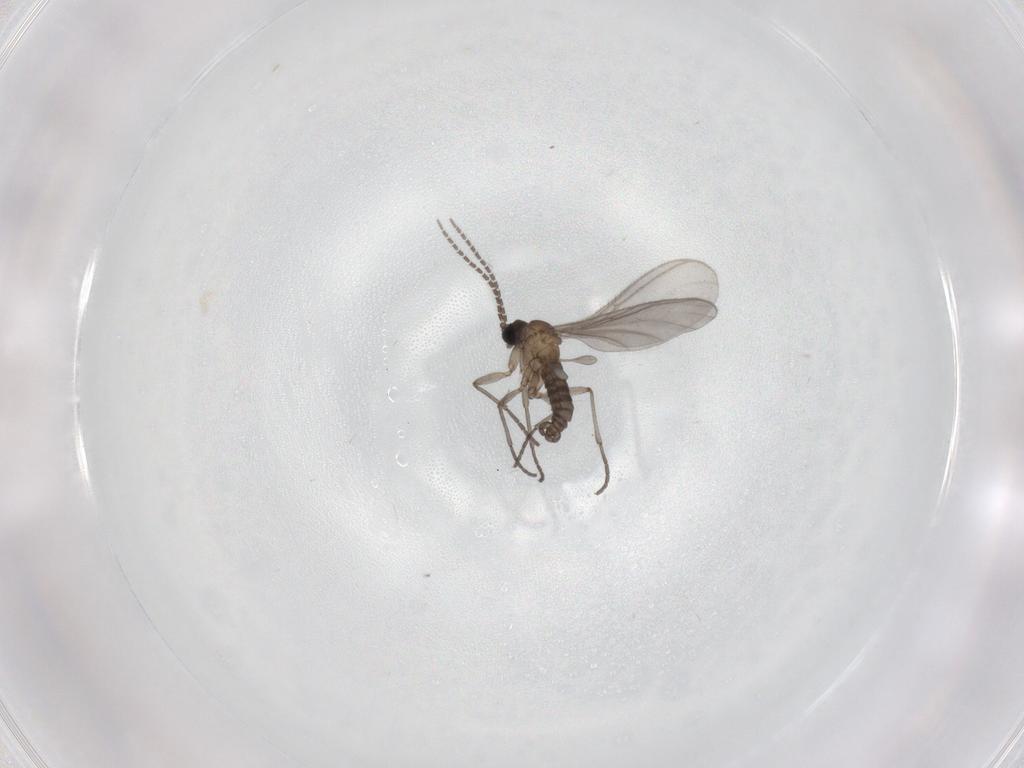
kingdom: Animalia
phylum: Arthropoda
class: Insecta
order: Diptera
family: Sciaridae
